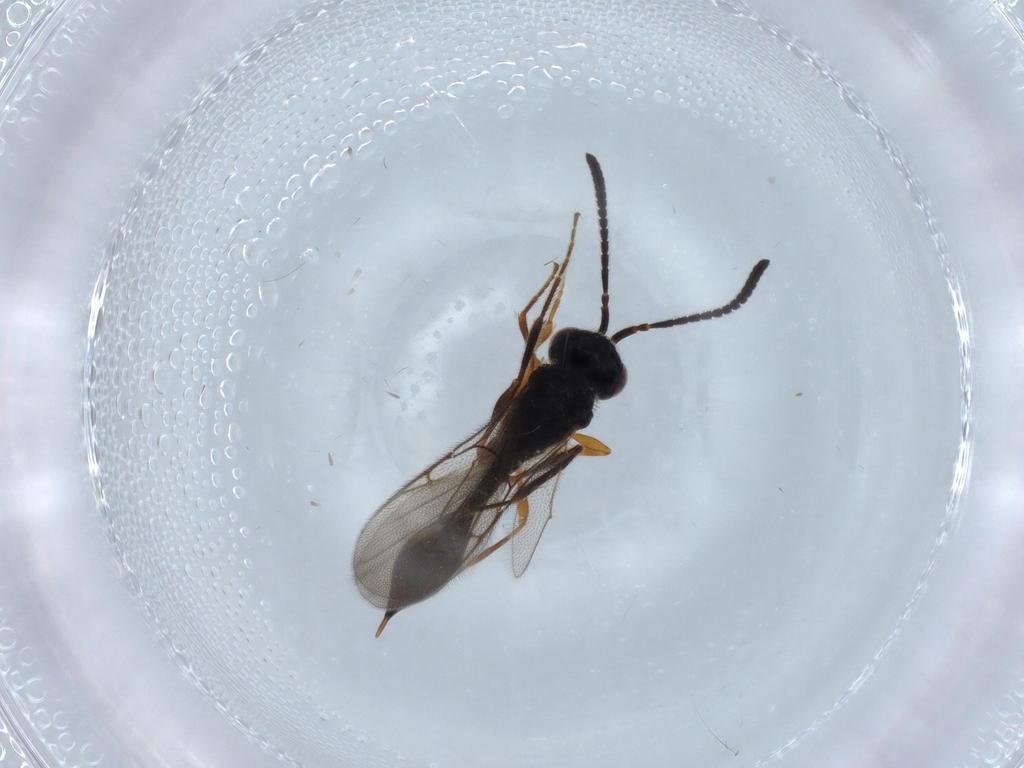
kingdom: Animalia
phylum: Arthropoda
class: Insecta
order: Hymenoptera
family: Diapriidae
